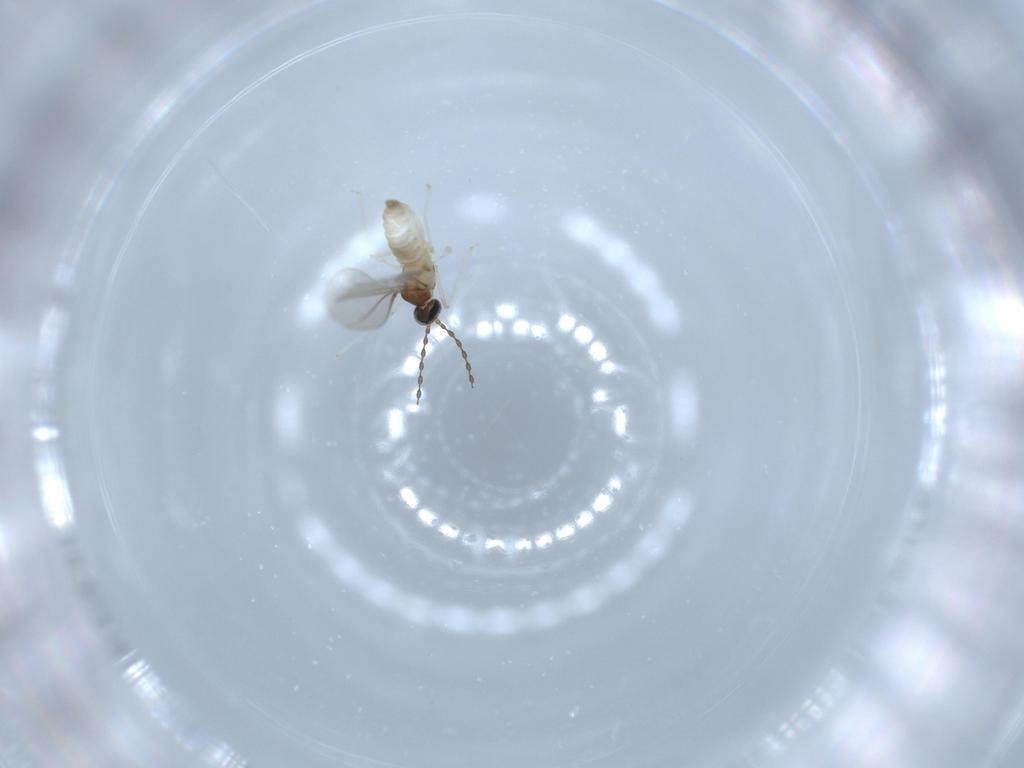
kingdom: Animalia
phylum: Arthropoda
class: Insecta
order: Diptera
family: Cecidomyiidae
